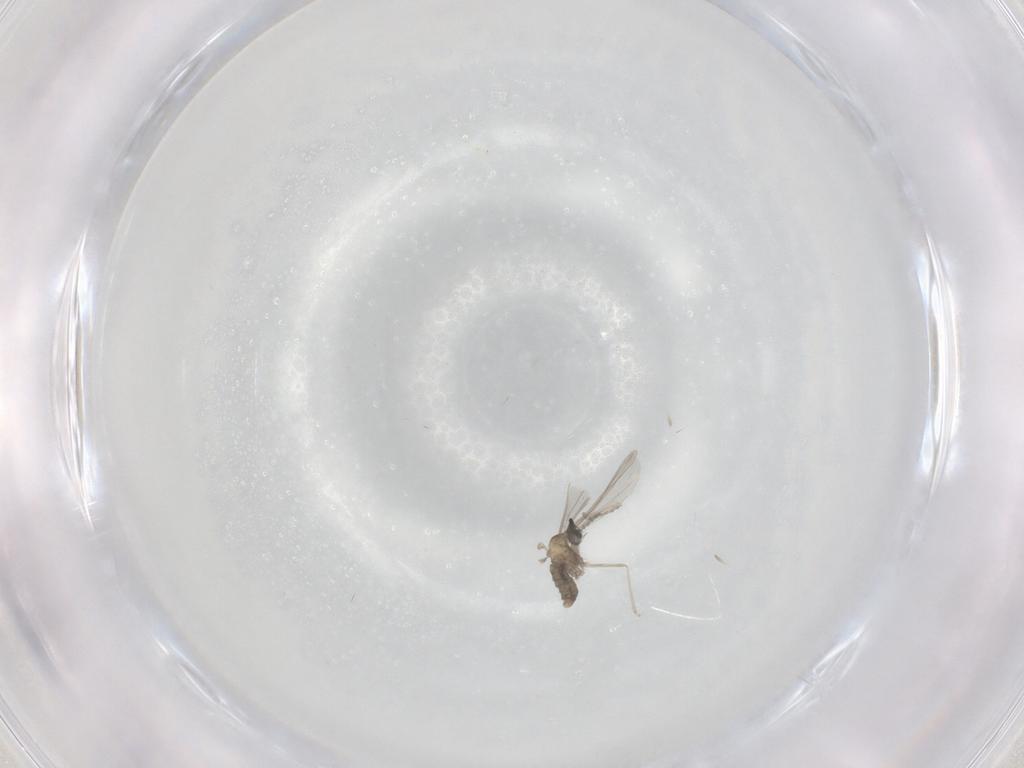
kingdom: Animalia
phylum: Arthropoda
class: Insecta
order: Diptera
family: Cecidomyiidae
